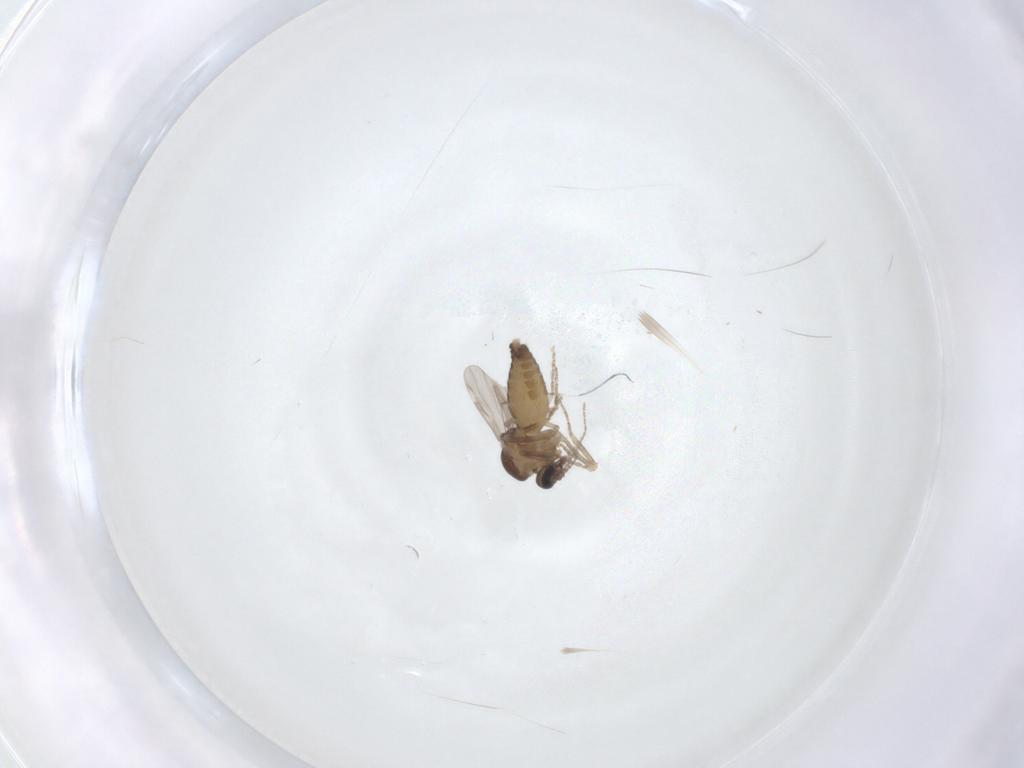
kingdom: Animalia
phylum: Arthropoda
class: Insecta
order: Diptera
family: Ceratopogonidae
